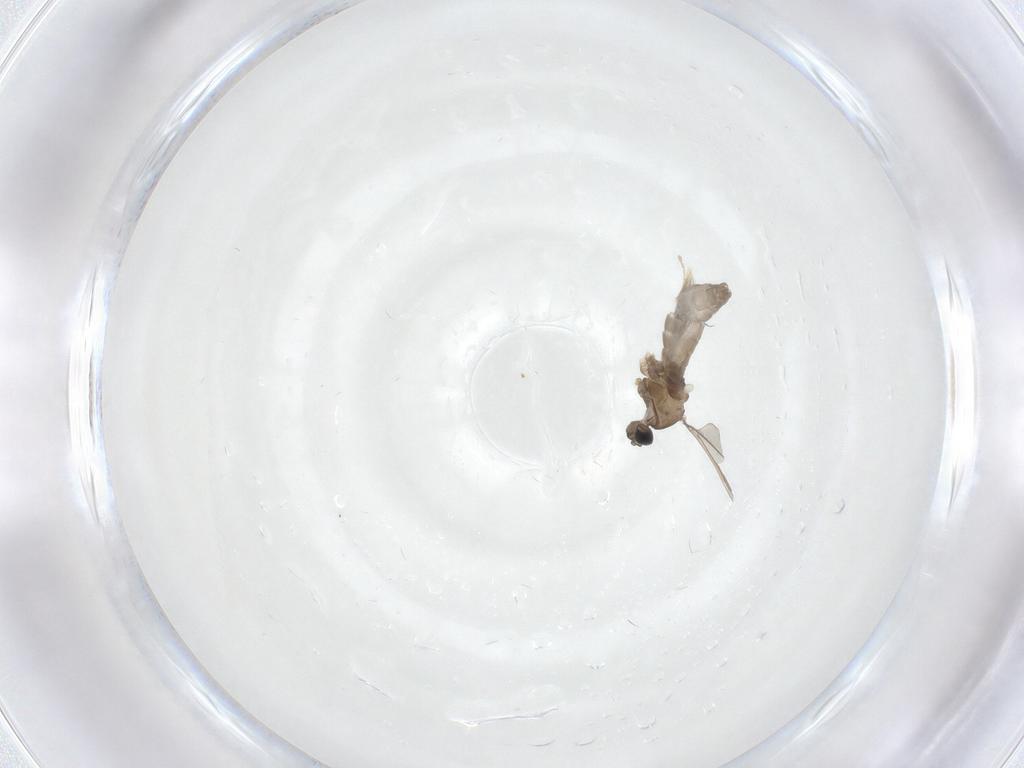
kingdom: Animalia
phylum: Arthropoda
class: Insecta
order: Diptera
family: Cecidomyiidae
